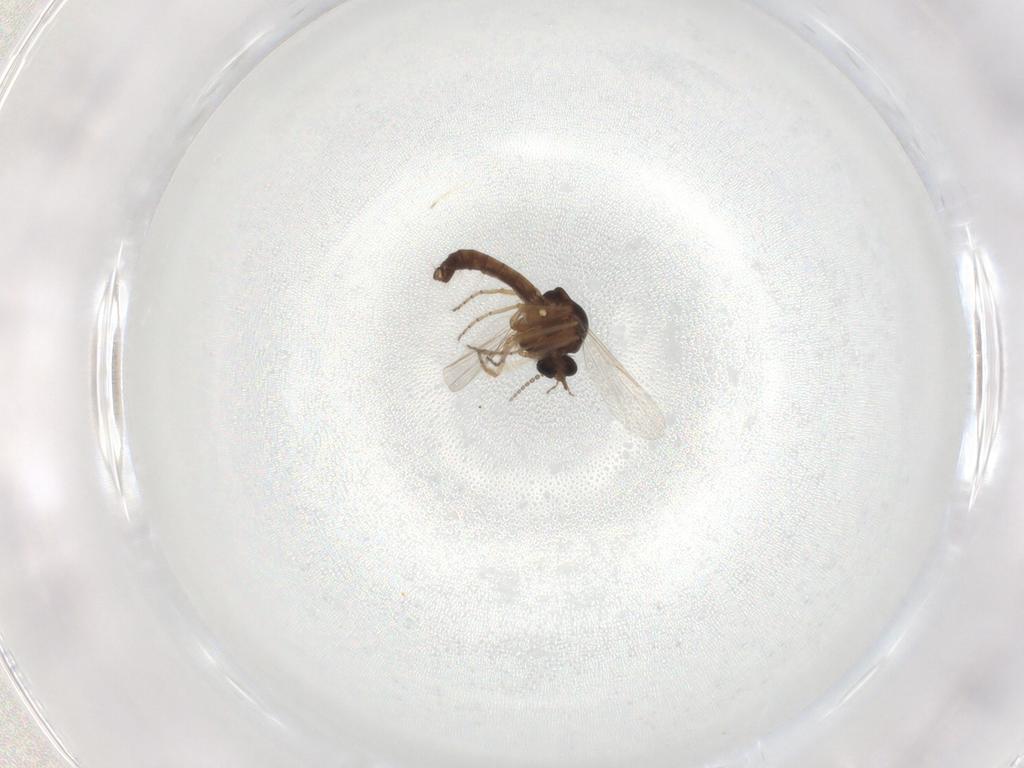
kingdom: Animalia
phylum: Arthropoda
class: Insecta
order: Diptera
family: Ceratopogonidae
